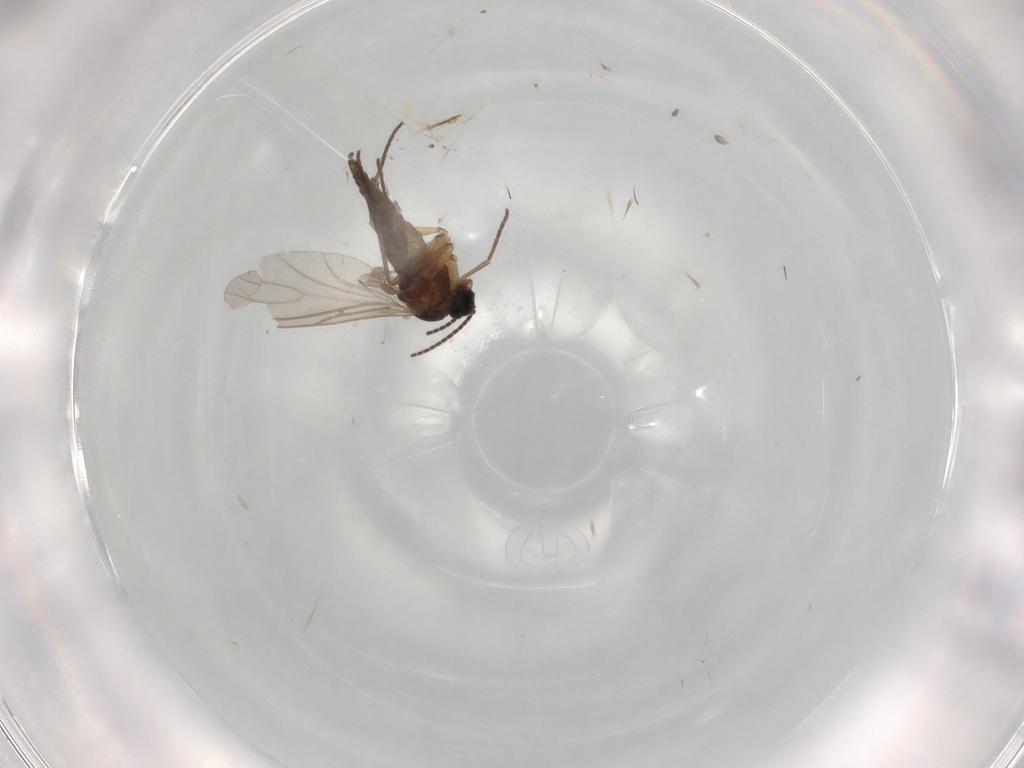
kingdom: Animalia
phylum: Arthropoda
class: Insecta
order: Diptera
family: Sciaridae
